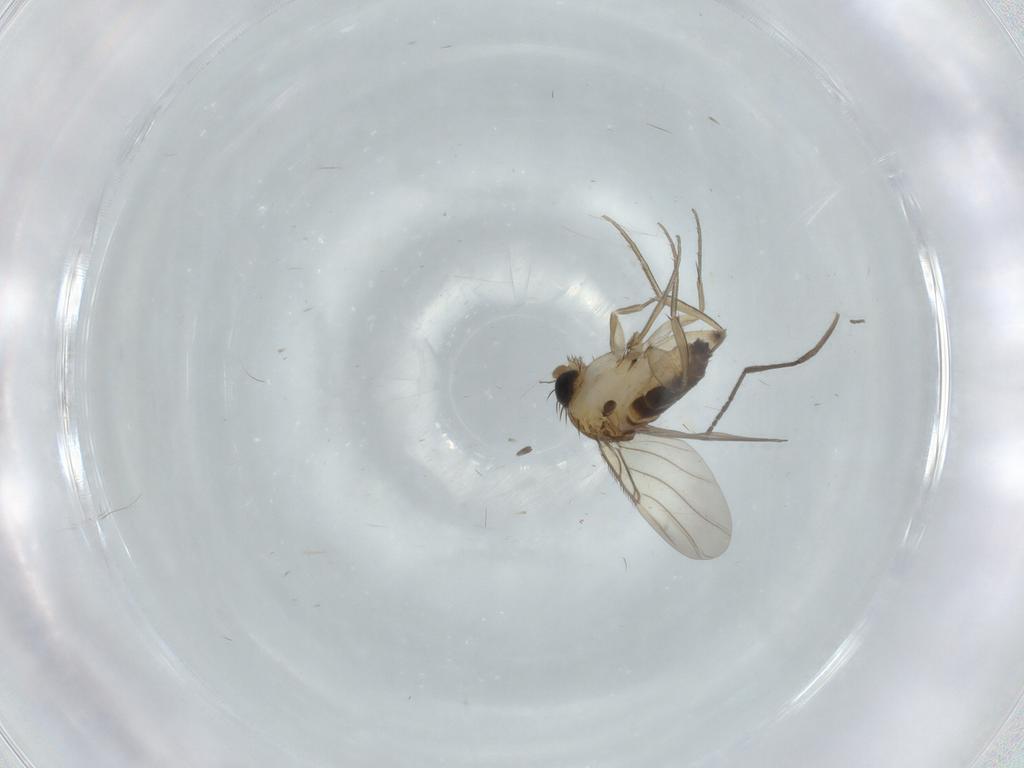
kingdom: Animalia
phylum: Arthropoda
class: Insecta
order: Diptera
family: Phoridae
